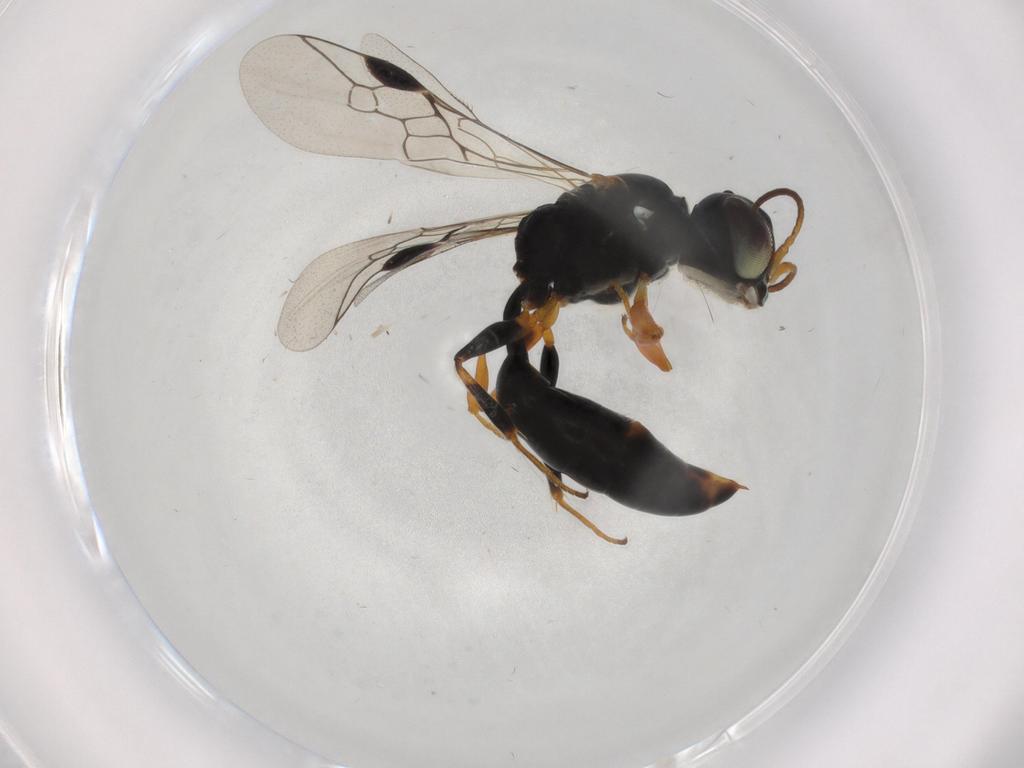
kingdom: Animalia
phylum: Arthropoda
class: Insecta
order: Hymenoptera
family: Pemphredonidae
